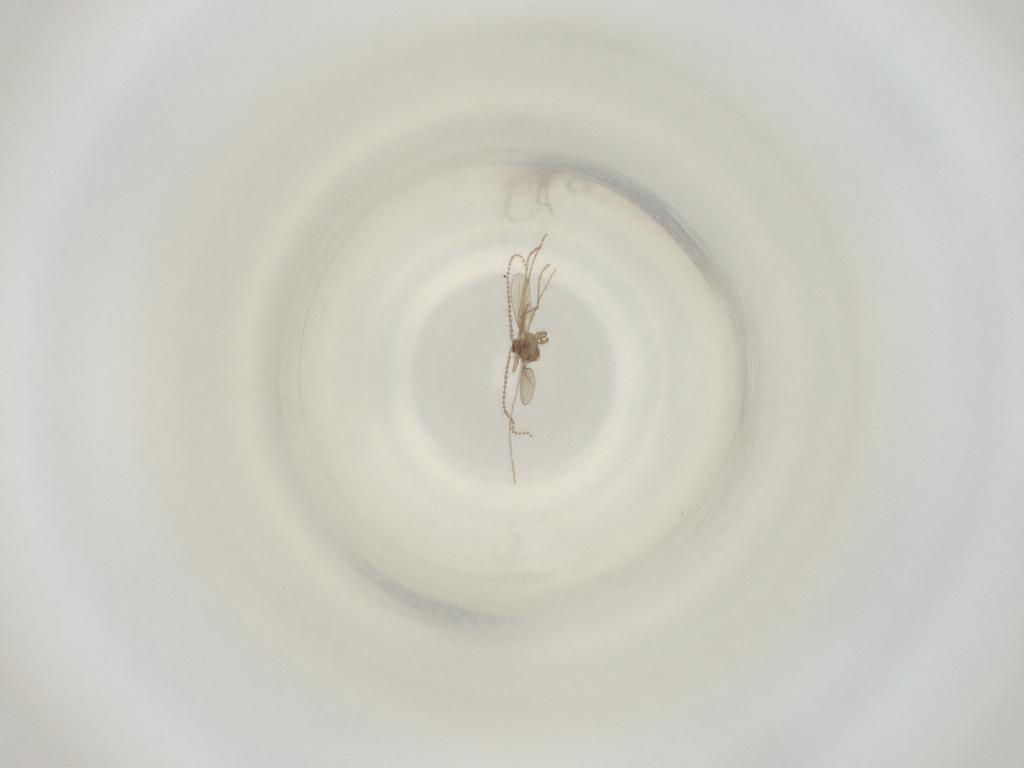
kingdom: Animalia
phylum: Arthropoda
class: Insecta
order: Diptera
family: Cecidomyiidae
